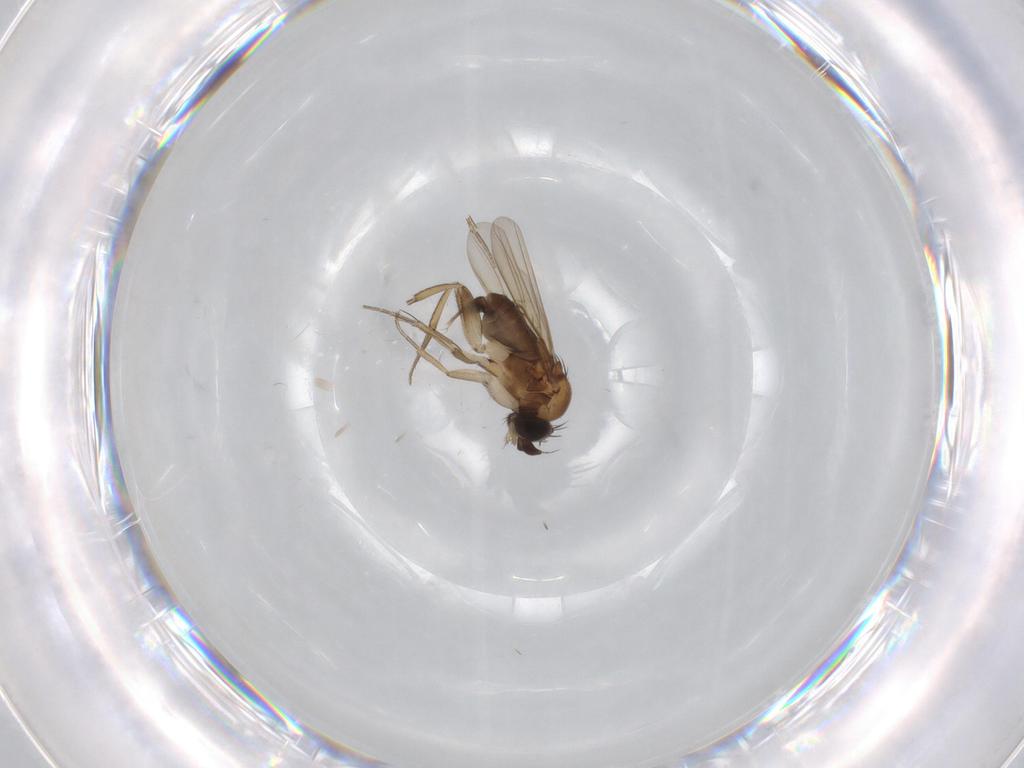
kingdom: Animalia
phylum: Arthropoda
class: Insecta
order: Diptera
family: Phoridae
